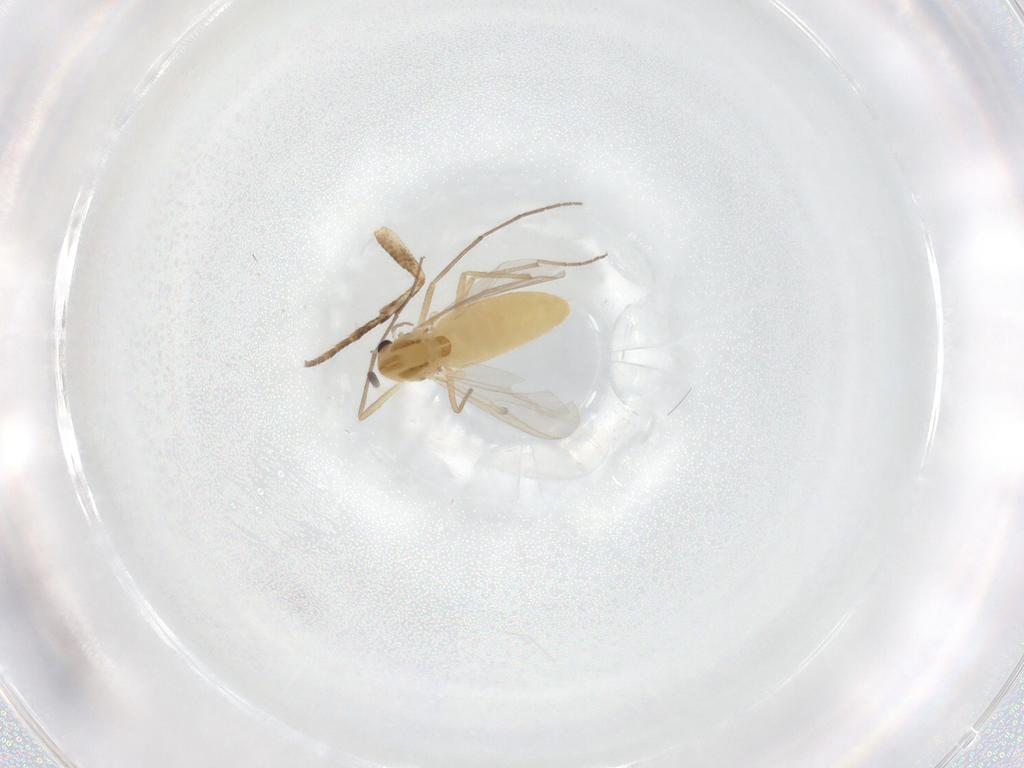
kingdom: Animalia
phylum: Arthropoda
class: Insecta
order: Diptera
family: Chironomidae
